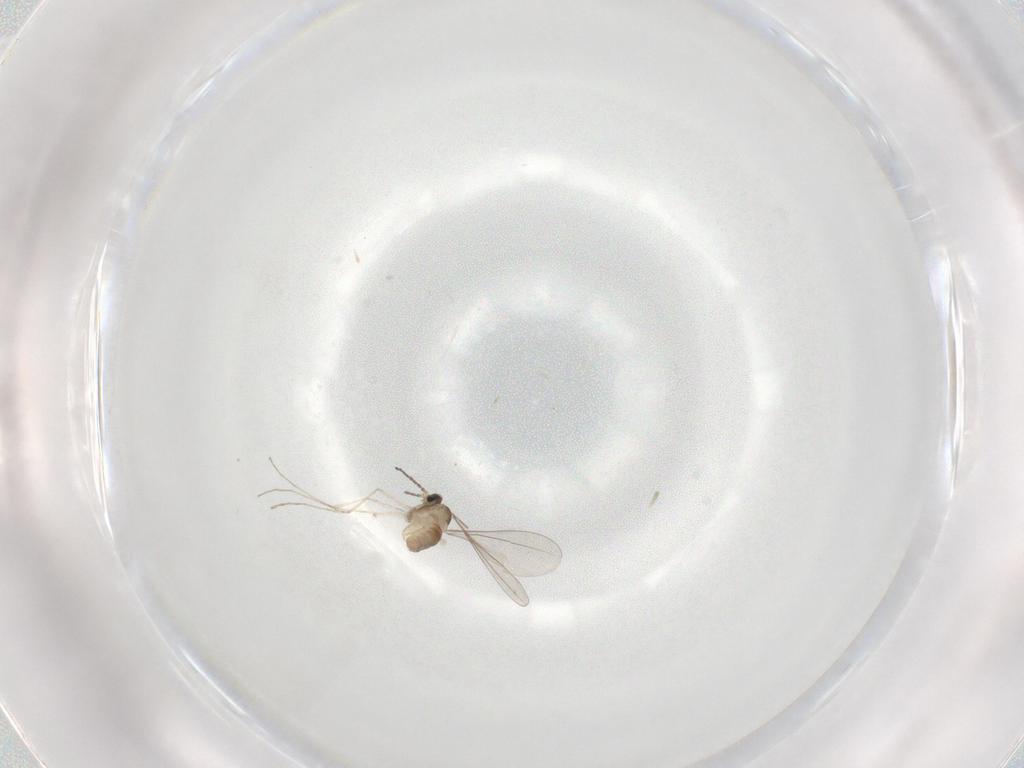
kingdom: Animalia
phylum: Arthropoda
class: Insecta
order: Diptera
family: Cecidomyiidae
